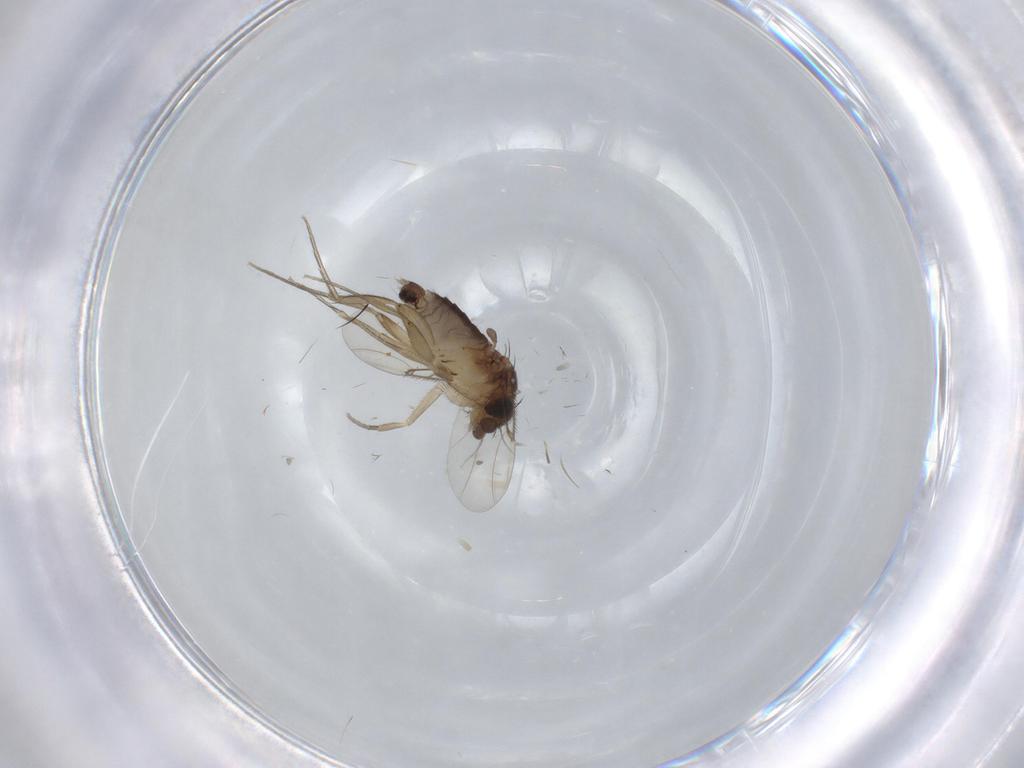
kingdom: Animalia
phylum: Arthropoda
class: Insecta
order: Diptera
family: Phoridae
